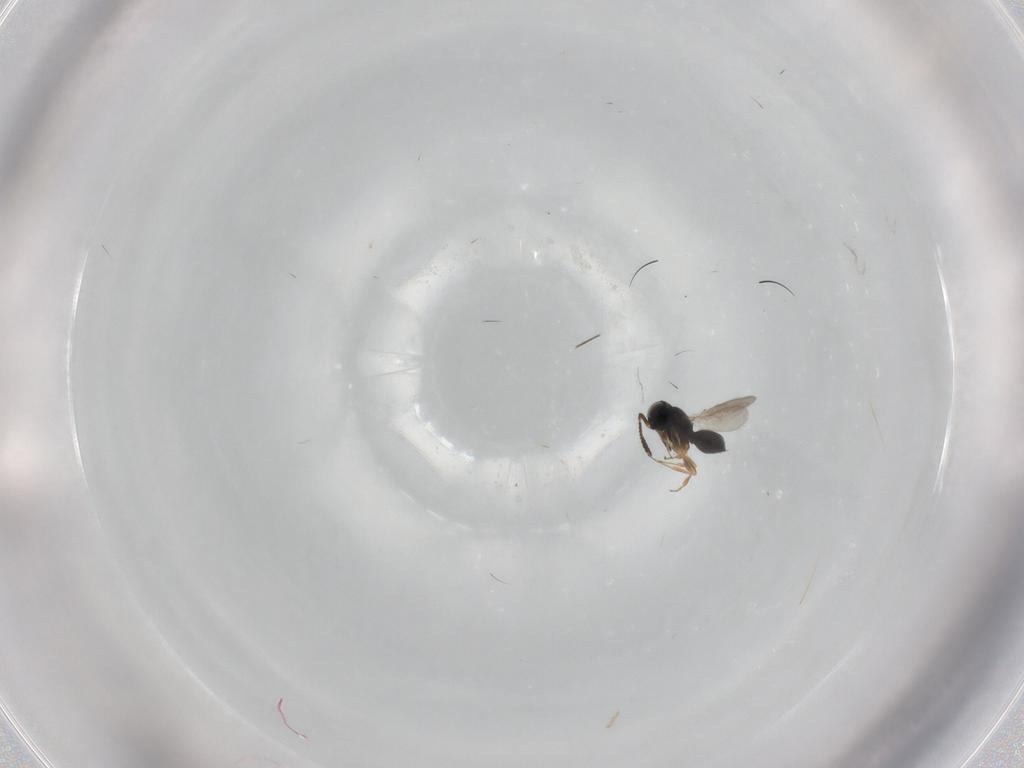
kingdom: Animalia
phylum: Arthropoda
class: Insecta
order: Hymenoptera
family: Scelionidae
